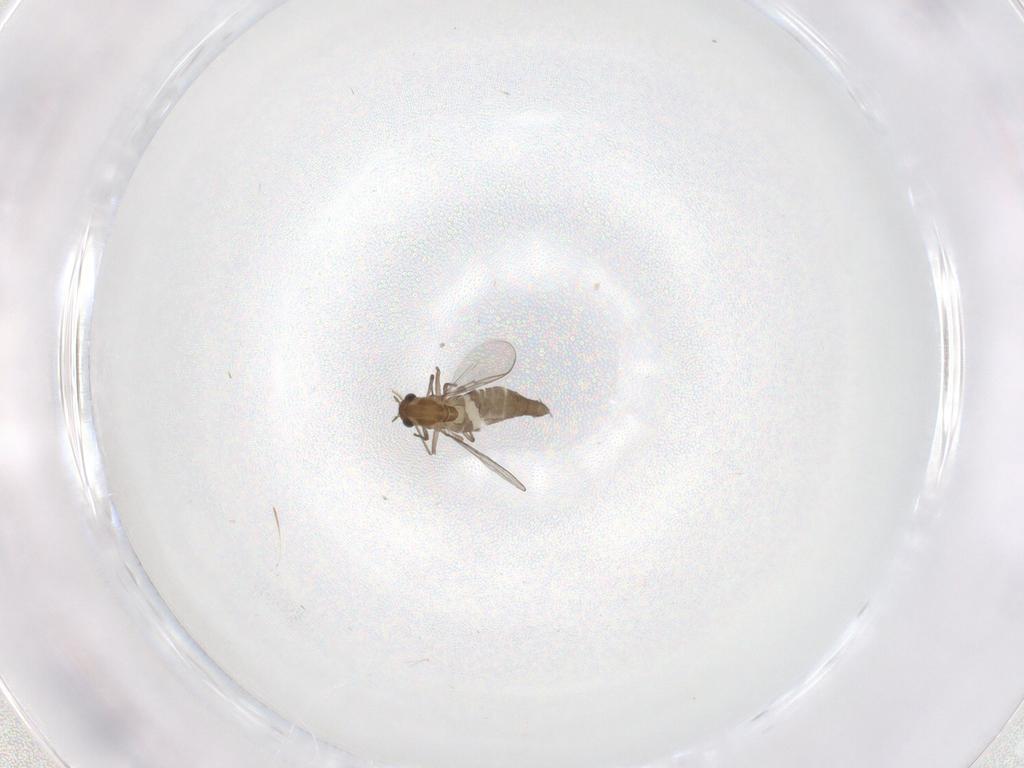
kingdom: Animalia
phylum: Arthropoda
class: Insecta
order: Diptera
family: Chironomidae
